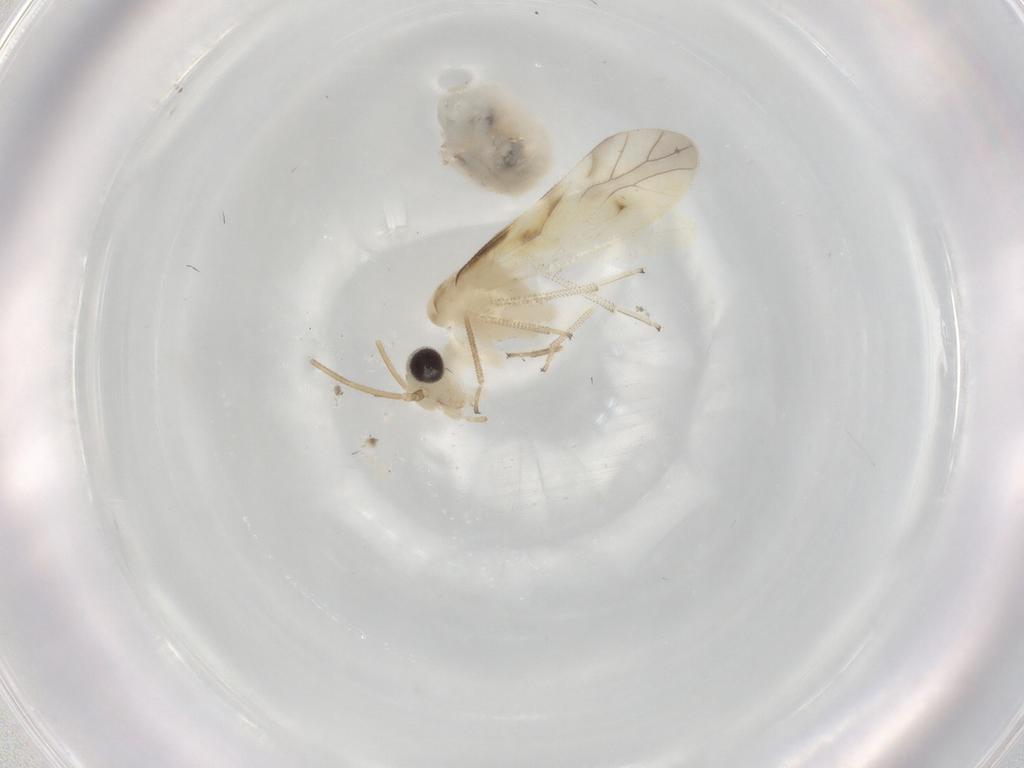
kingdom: Animalia
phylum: Arthropoda
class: Insecta
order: Psocodea
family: Caeciliusidae
